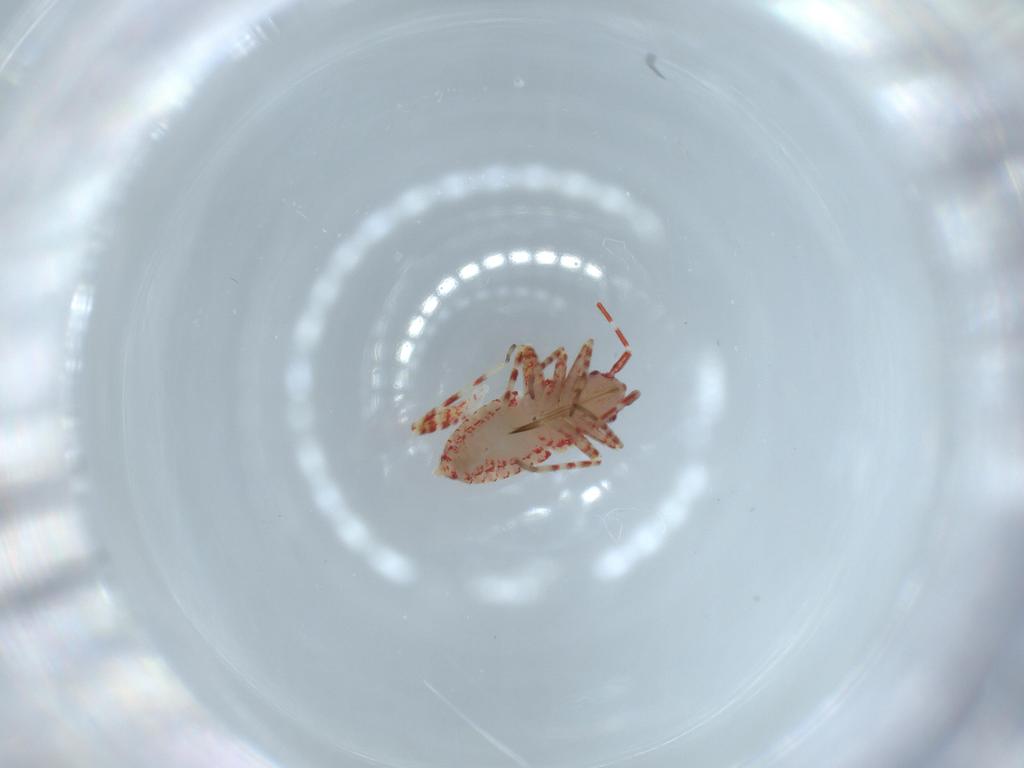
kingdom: Animalia
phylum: Arthropoda
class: Insecta
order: Hemiptera
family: Miridae
